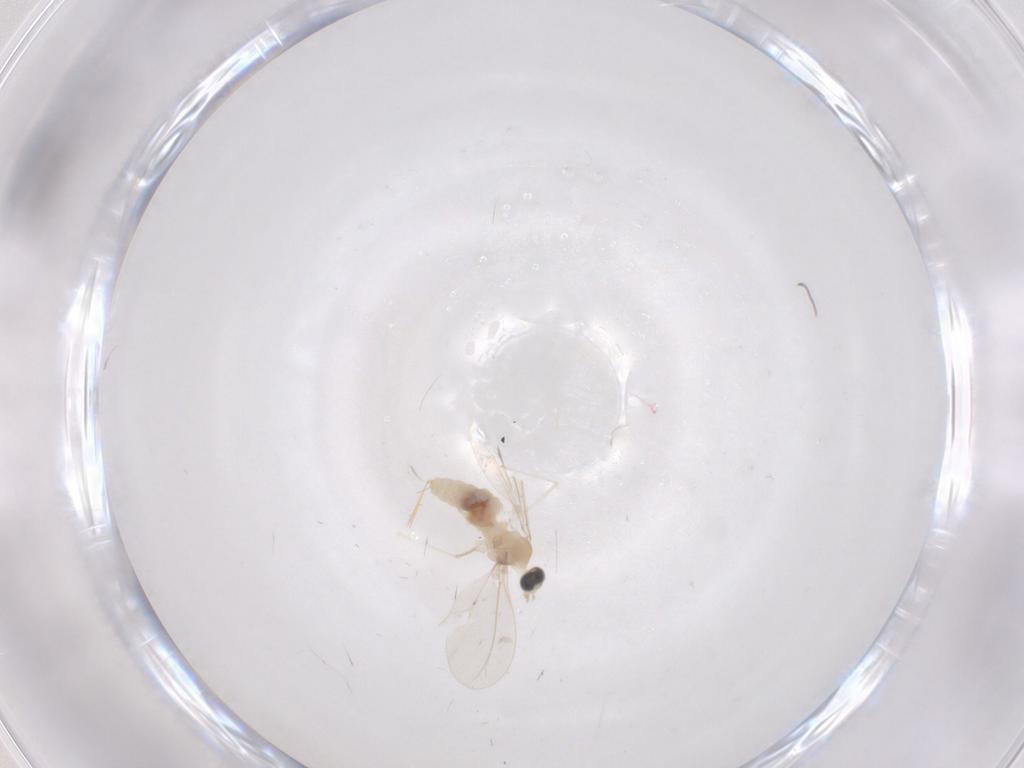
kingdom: Animalia
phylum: Arthropoda
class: Insecta
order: Diptera
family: Cecidomyiidae
